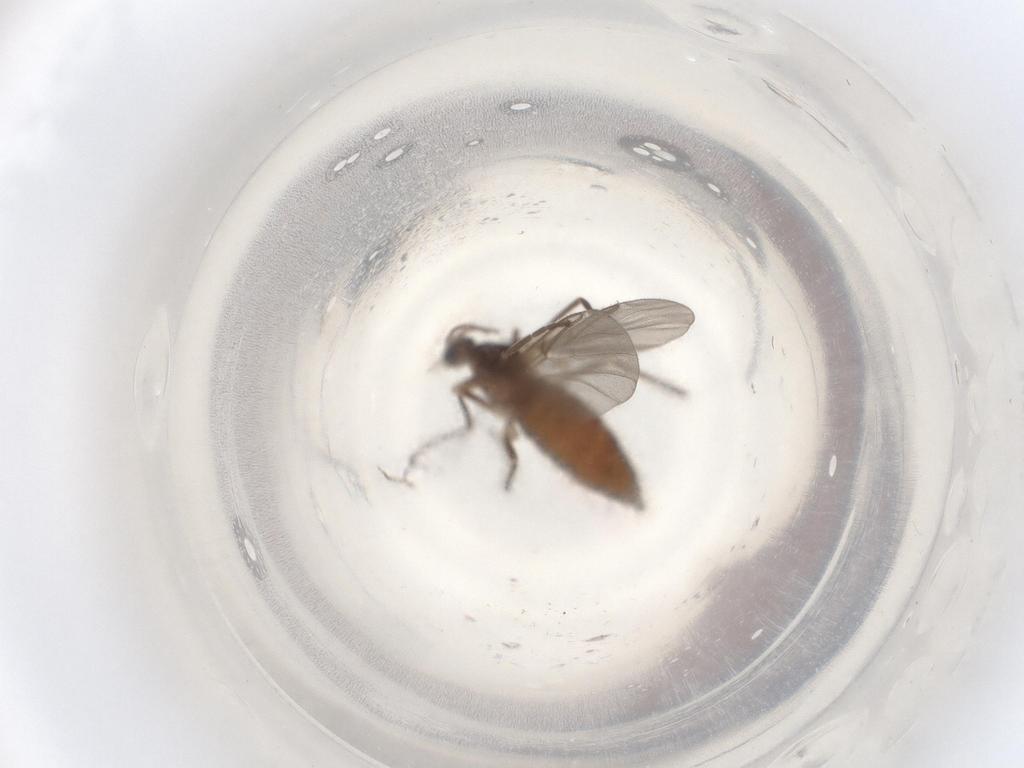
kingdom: Animalia
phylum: Arthropoda
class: Insecta
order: Diptera
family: Cecidomyiidae
